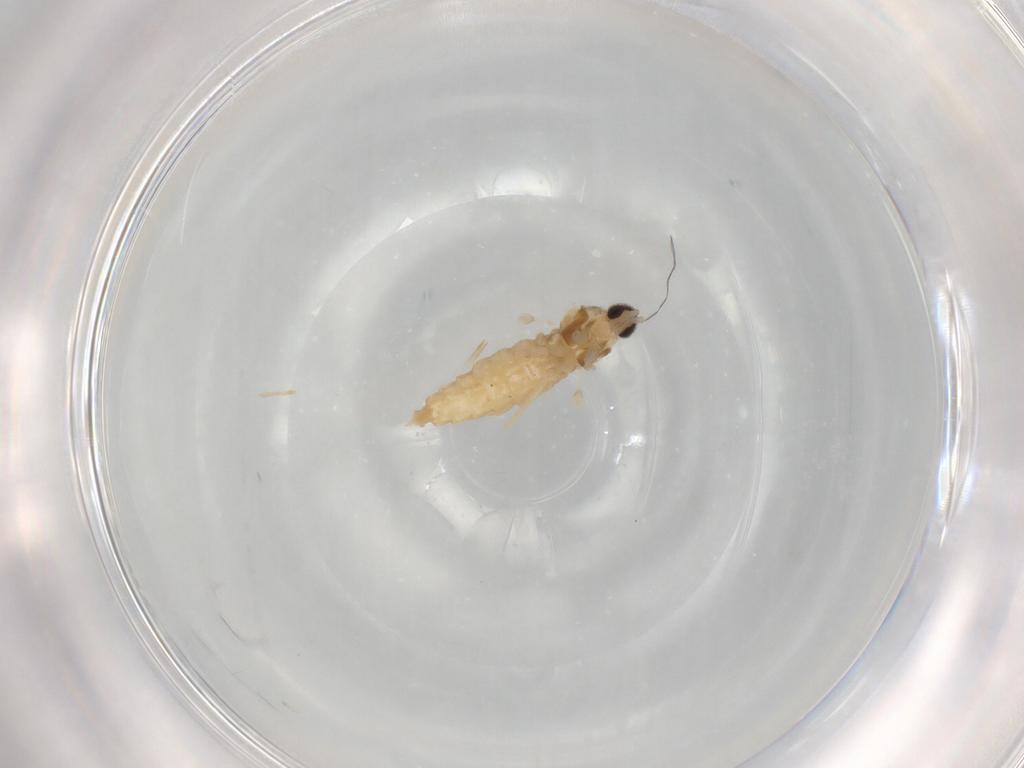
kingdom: Animalia
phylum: Arthropoda
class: Insecta
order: Diptera
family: Cecidomyiidae
